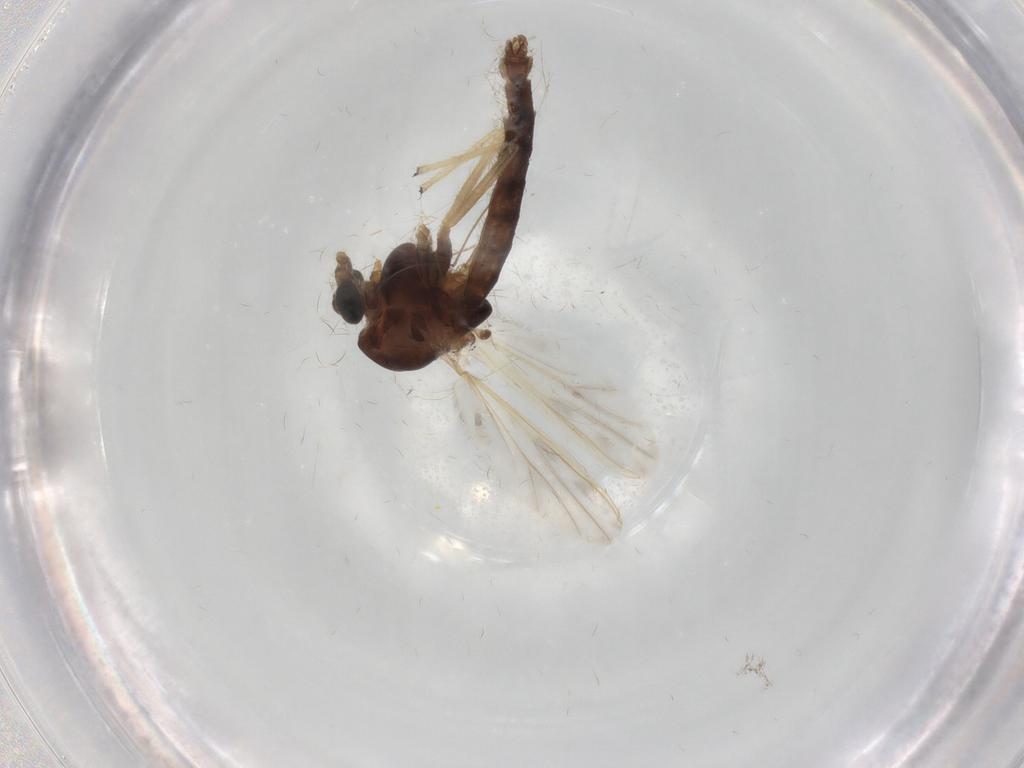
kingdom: Animalia
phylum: Arthropoda
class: Insecta
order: Diptera
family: Chironomidae
